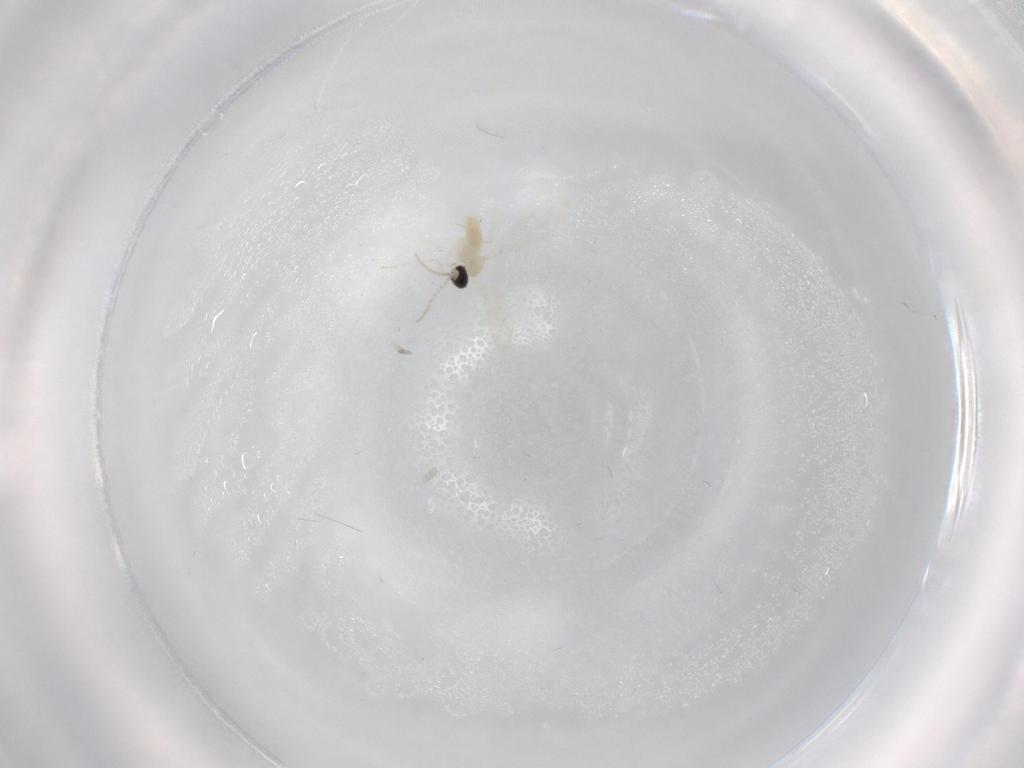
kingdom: Animalia
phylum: Arthropoda
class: Insecta
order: Diptera
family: Cecidomyiidae
